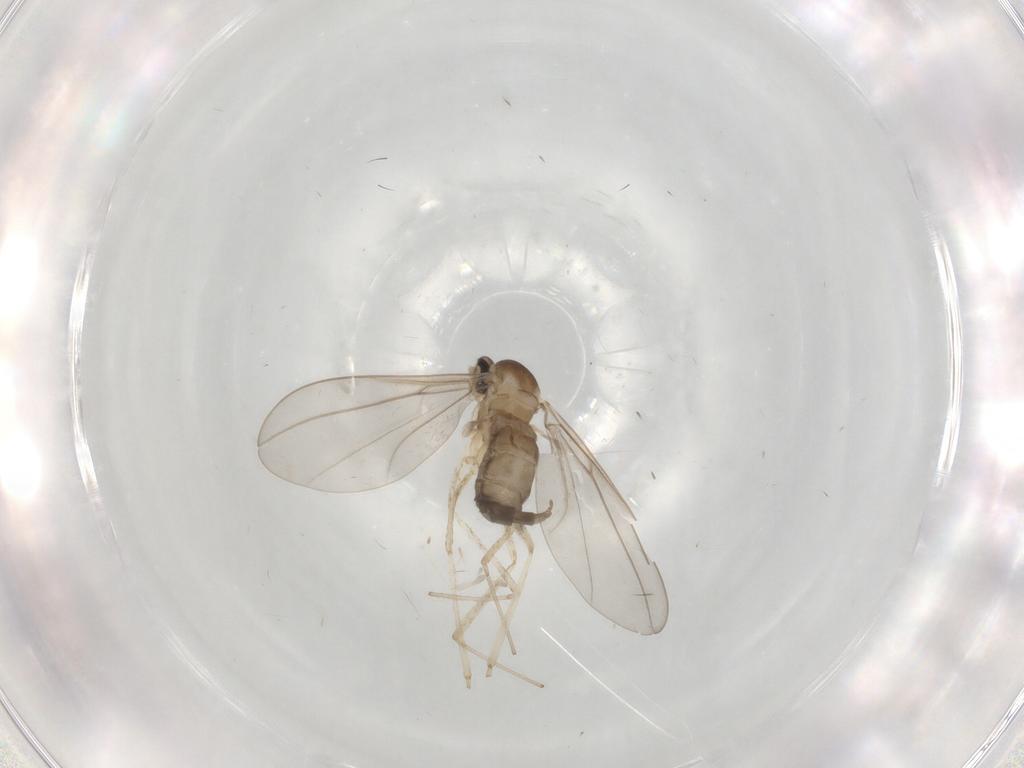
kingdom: Animalia
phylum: Arthropoda
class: Insecta
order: Diptera
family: Cecidomyiidae
